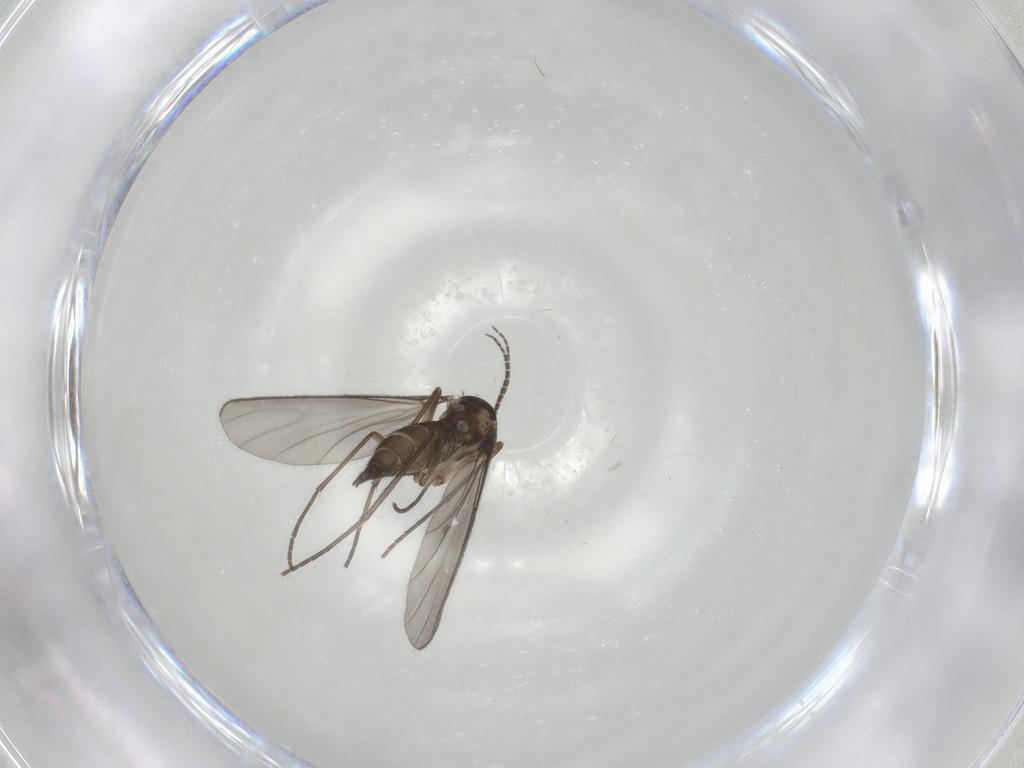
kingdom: Animalia
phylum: Arthropoda
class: Insecta
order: Diptera
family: Sciaridae
